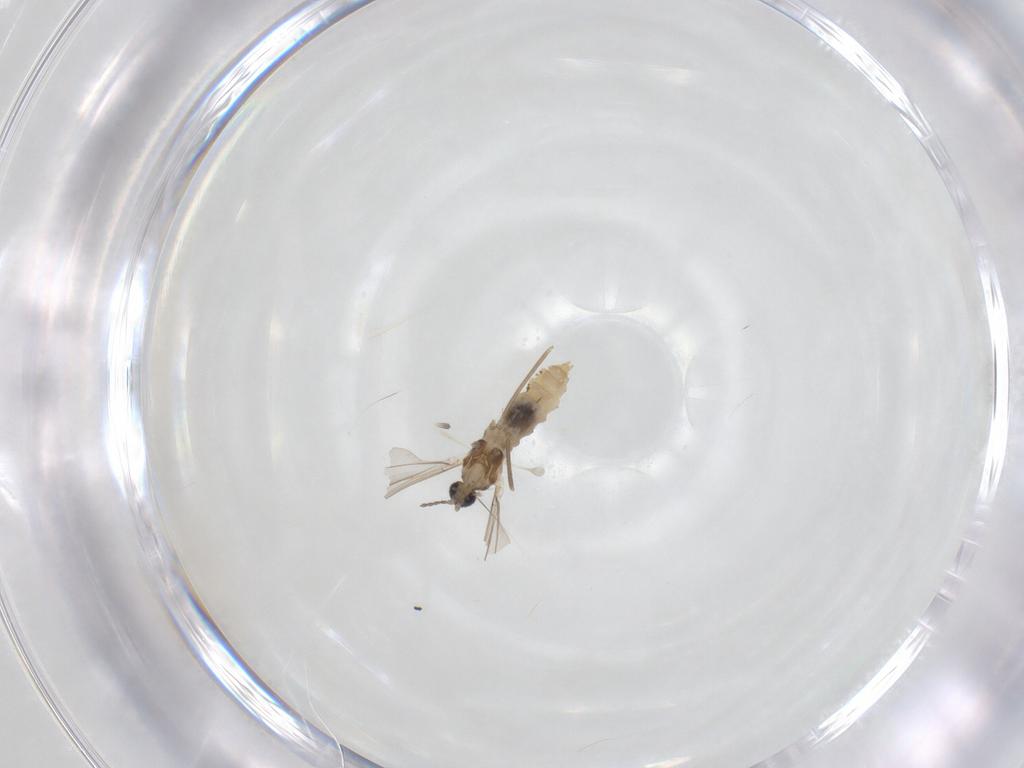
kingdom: Animalia
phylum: Arthropoda
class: Insecta
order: Diptera
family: Cecidomyiidae
